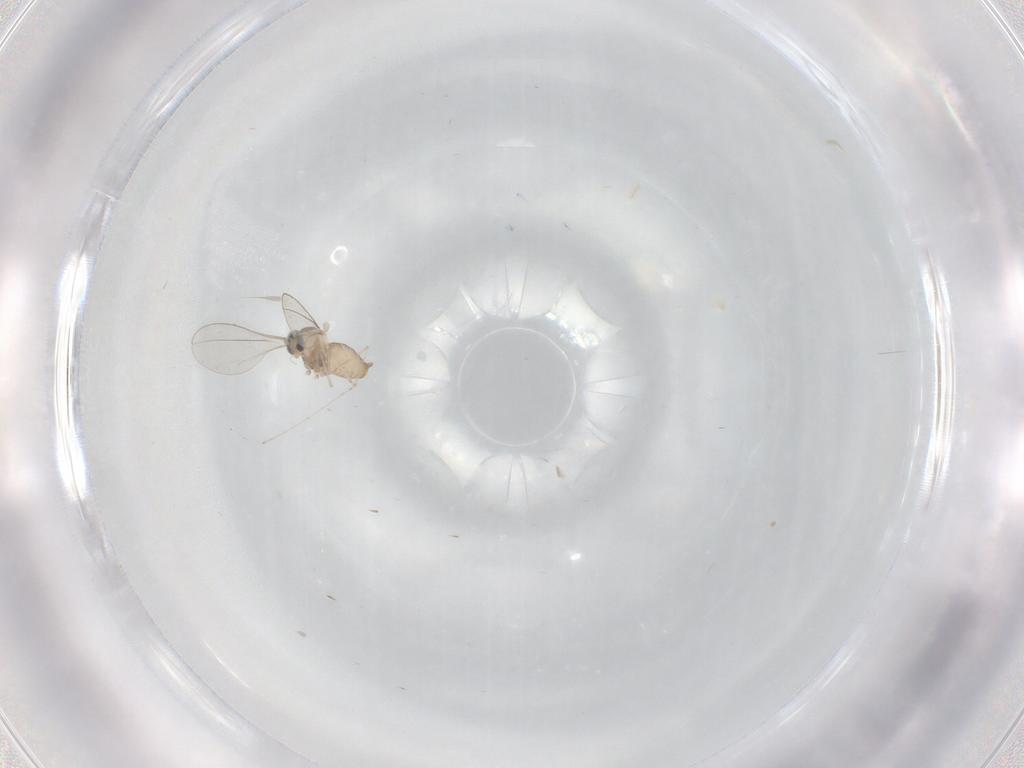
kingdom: Animalia
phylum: Arthropoda
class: Insecta
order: Diptera
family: Cecidomyiidae
